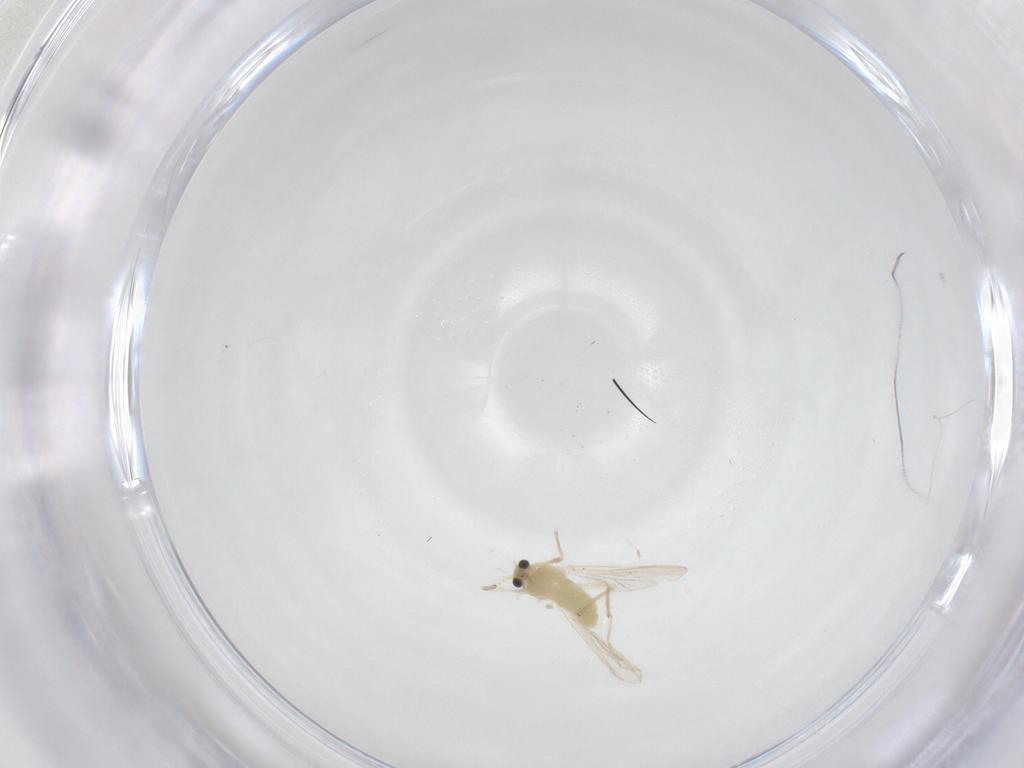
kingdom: Animalia
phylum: Arthropoda
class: Insecta
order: Diptera
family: Chironomidae
